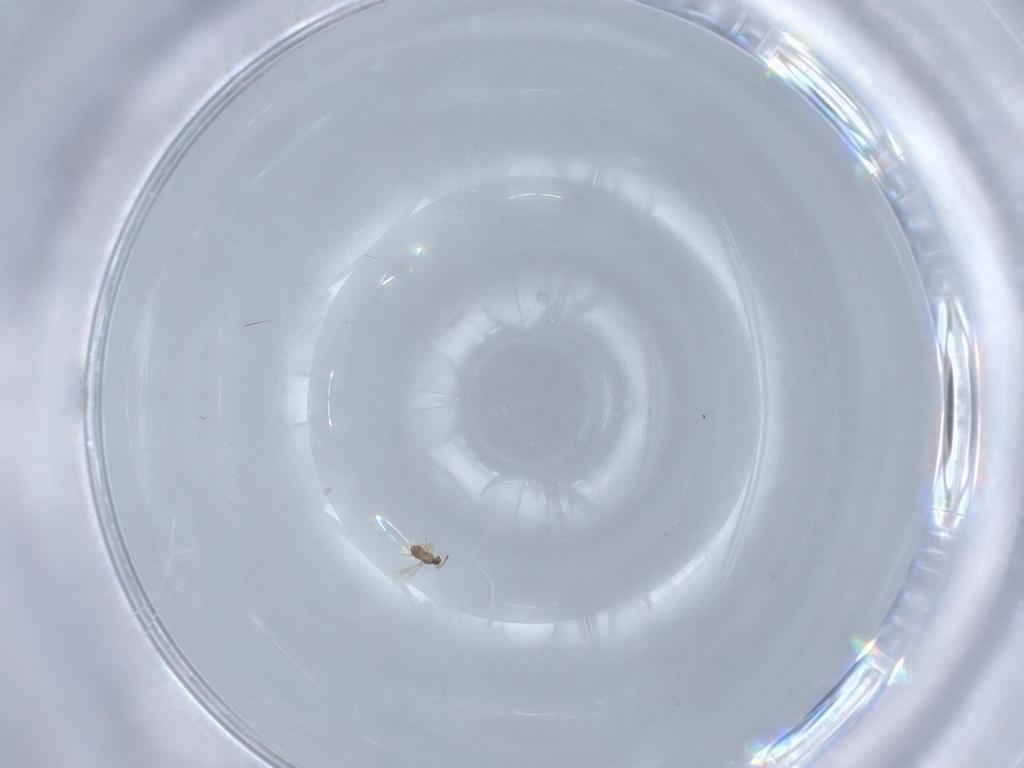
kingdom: Animalia
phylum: Arthropoda
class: Insecta
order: Hymenoptera
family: Mymaridae
